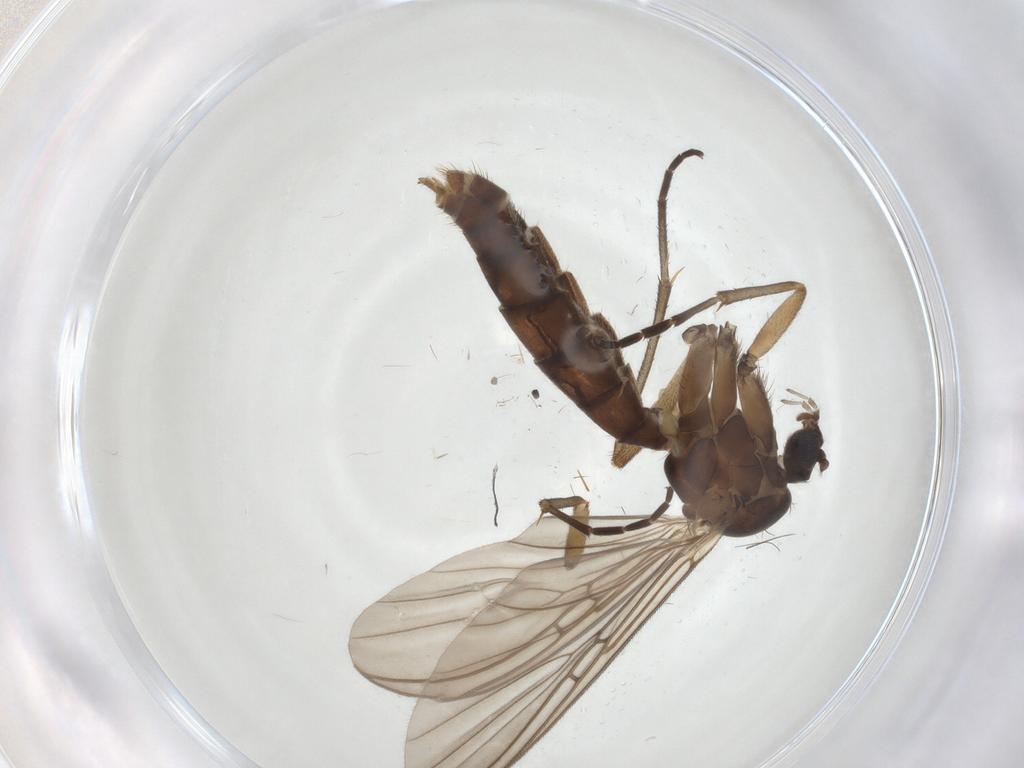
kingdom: Animalia
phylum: Arthropoda
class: Insecta
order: Diptera
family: Mycetophilidae
